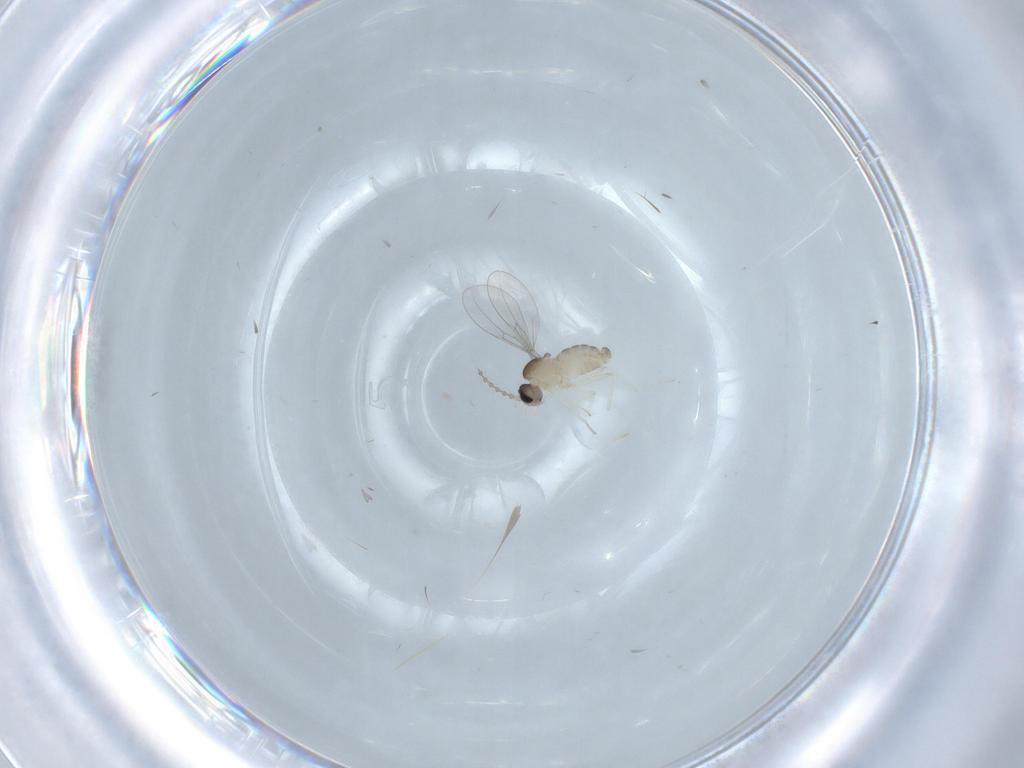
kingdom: Animalia
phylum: Arthropoda
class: Insecta
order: Diptera
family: Cecidomyiidae
